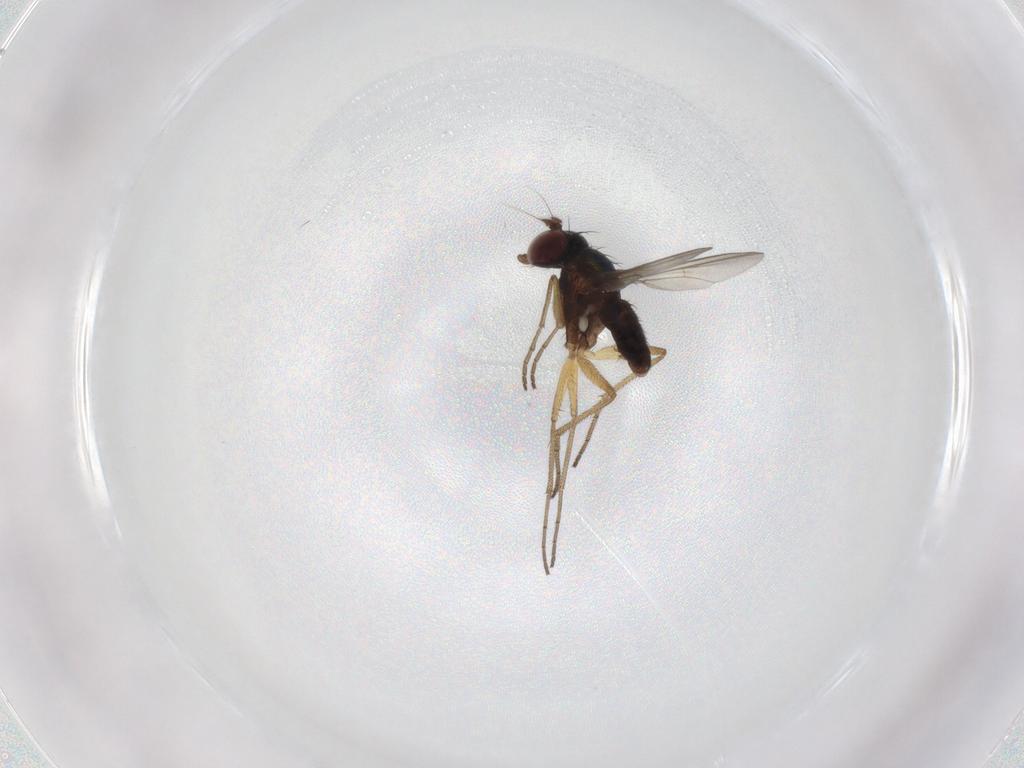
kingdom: Animalia
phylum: Arthropoda
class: Insecta
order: Diptera
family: Dolichopodidae
